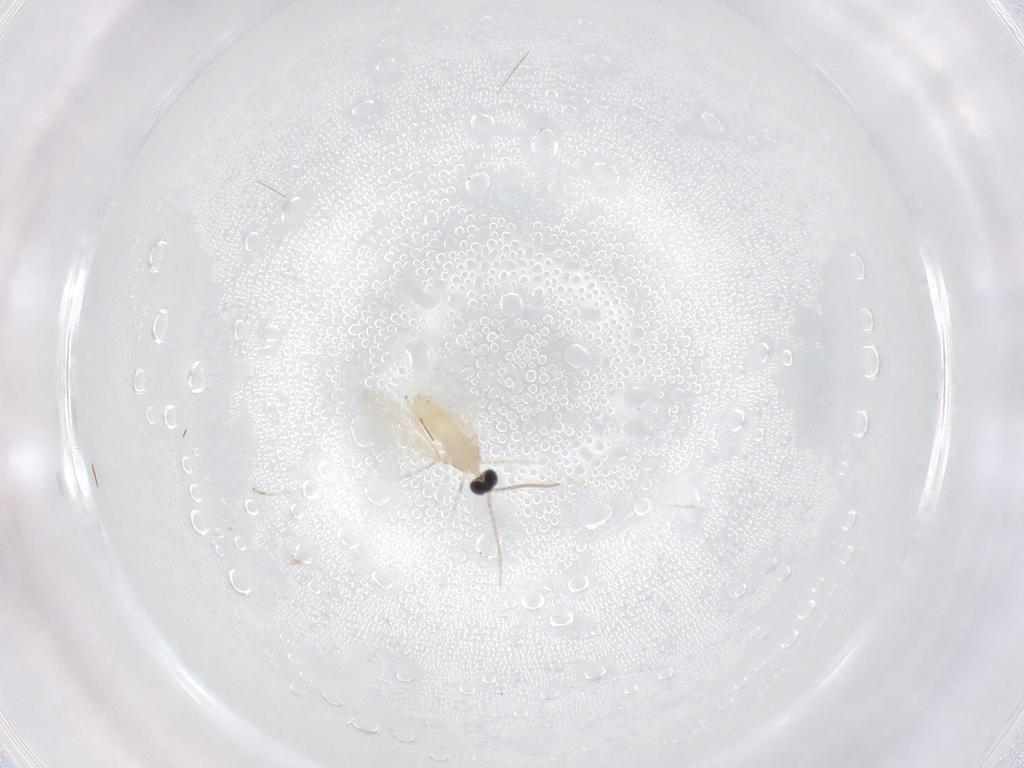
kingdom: Animalia
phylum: Arthropoda
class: Insecta
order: Diptera
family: Cecidomyiidae
